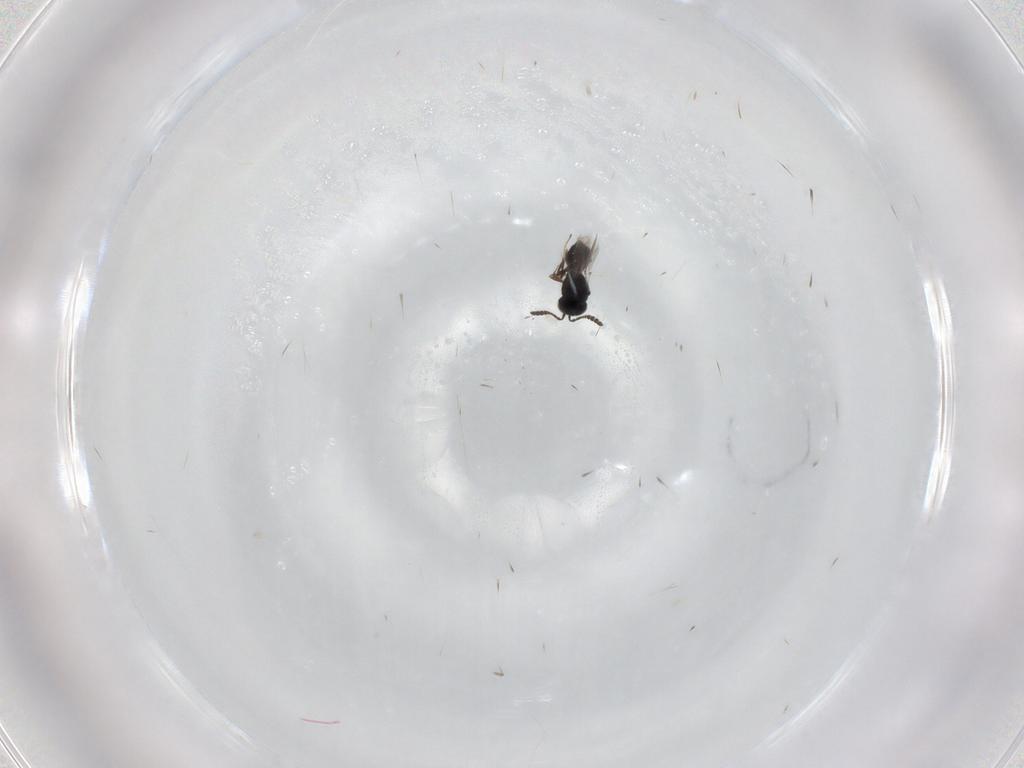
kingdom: Animalia
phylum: Arthropoda
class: Insecta
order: Hymenoptera
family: Scelionidae
